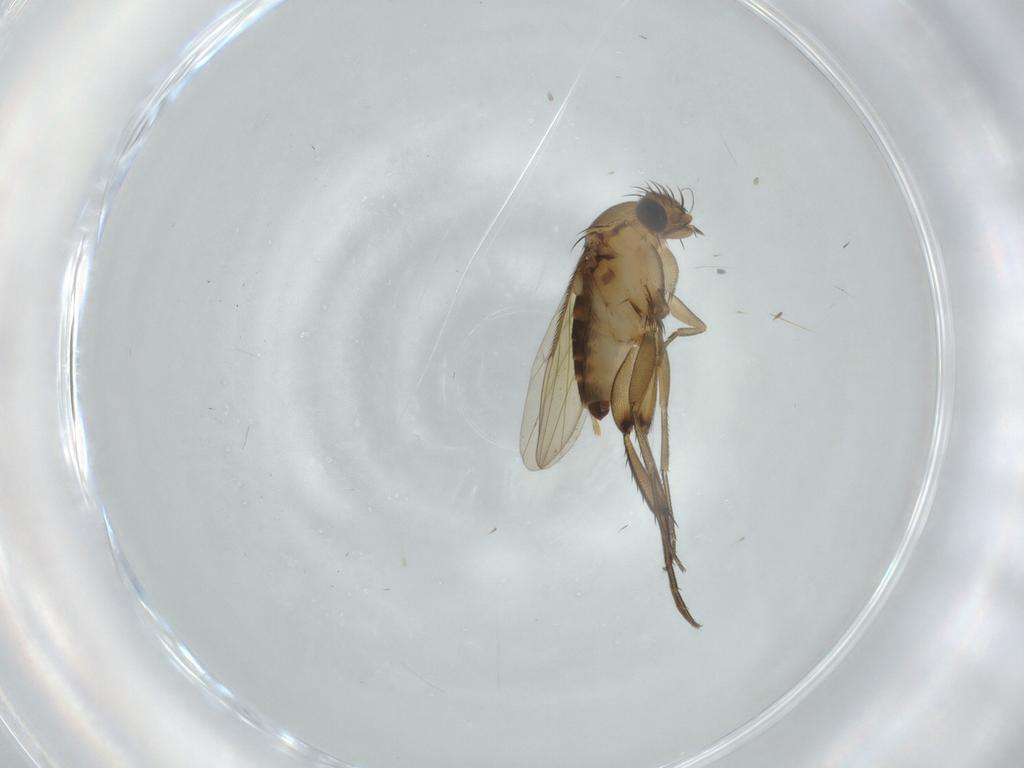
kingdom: Animalia
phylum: Arthropoda
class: Insecta
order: Diptera
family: Phoridae
